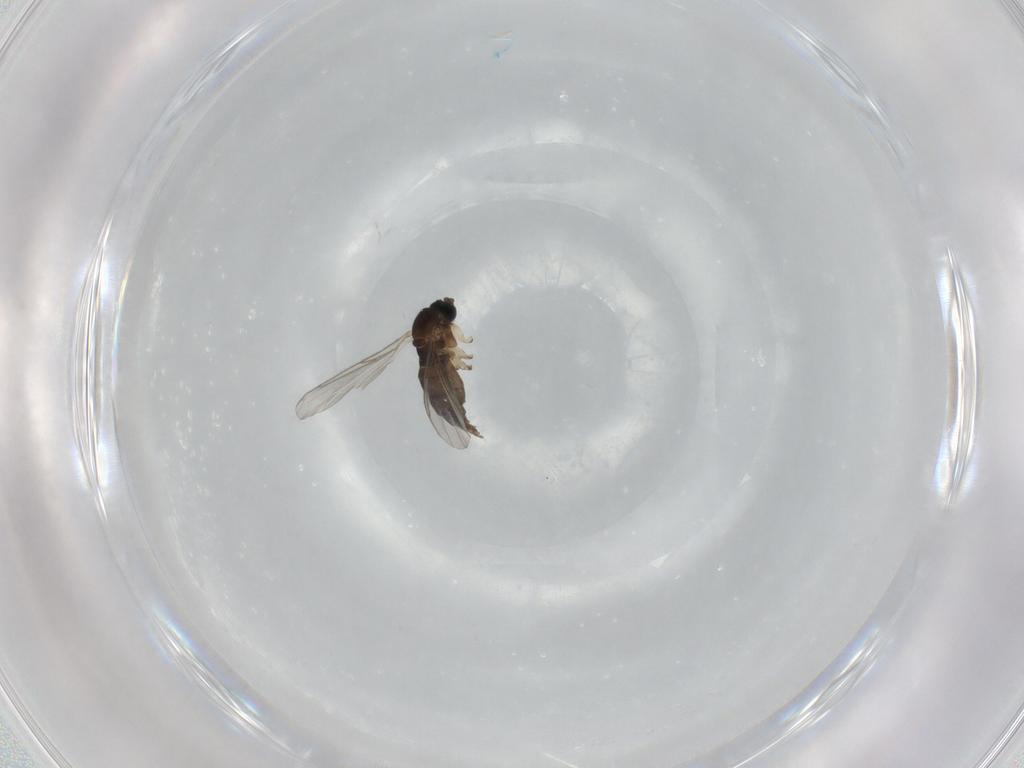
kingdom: Animalia
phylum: Arthropoda
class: Insecta
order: Diptera
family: Sciaridae
